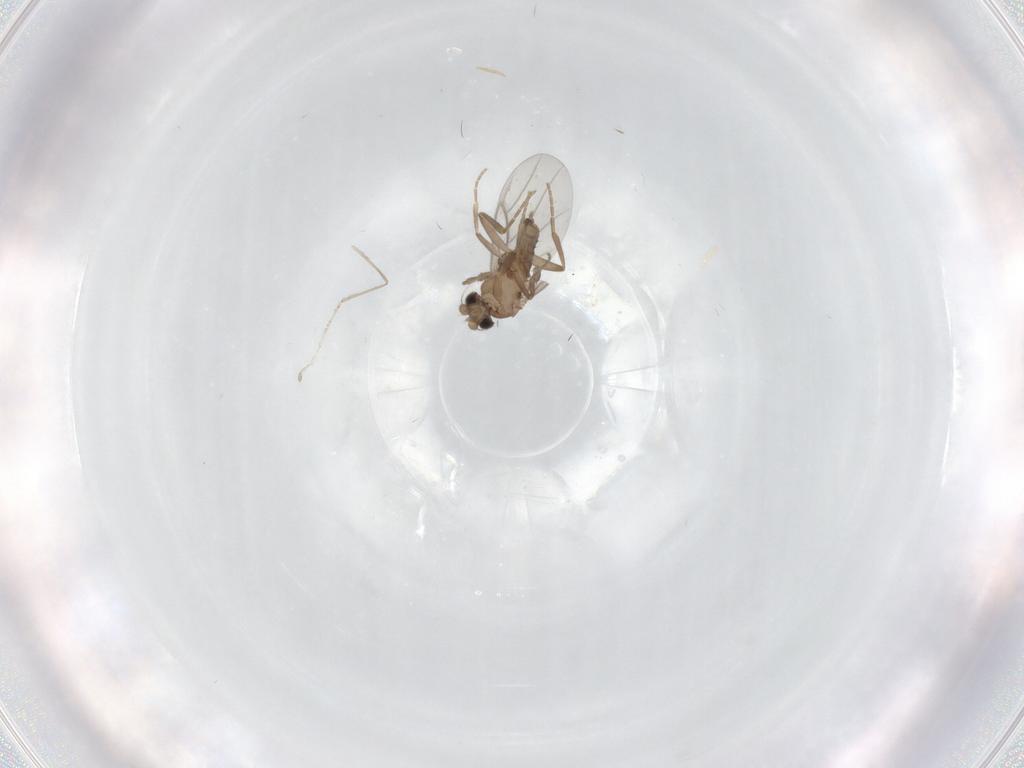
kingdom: Animalia
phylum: Arthropoda
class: Insecta
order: Diptera
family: Cecidomyiidae
